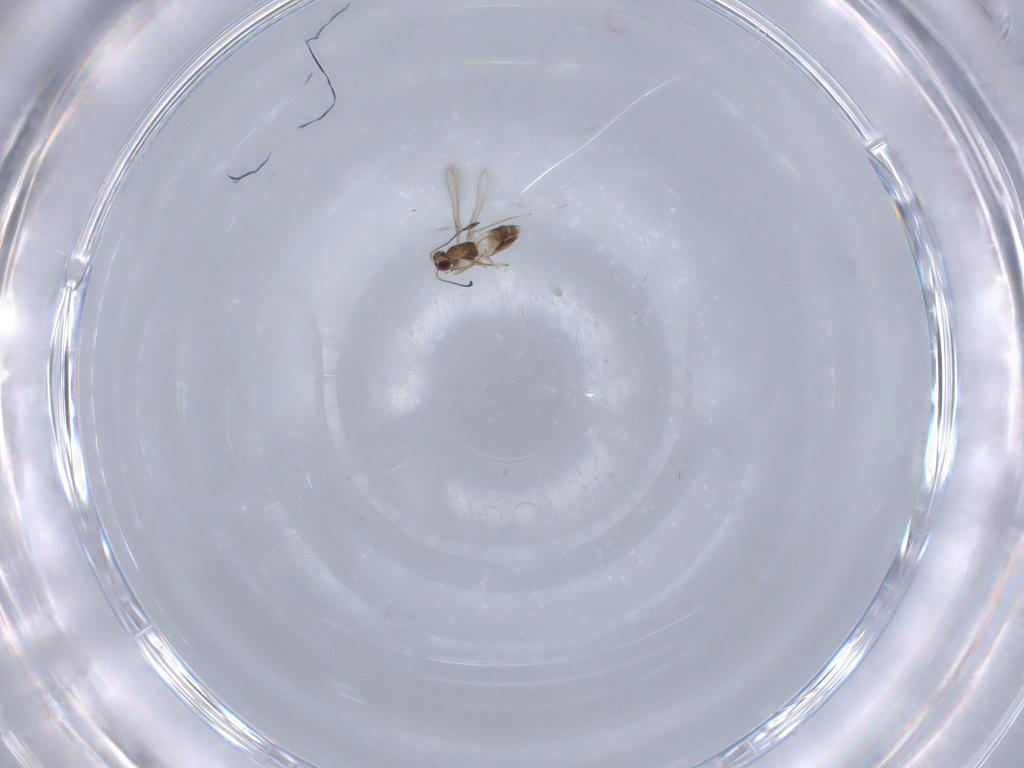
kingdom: Animalia
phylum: Arthropoda
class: Insecta
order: Hymenoptera
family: Mymaridae
